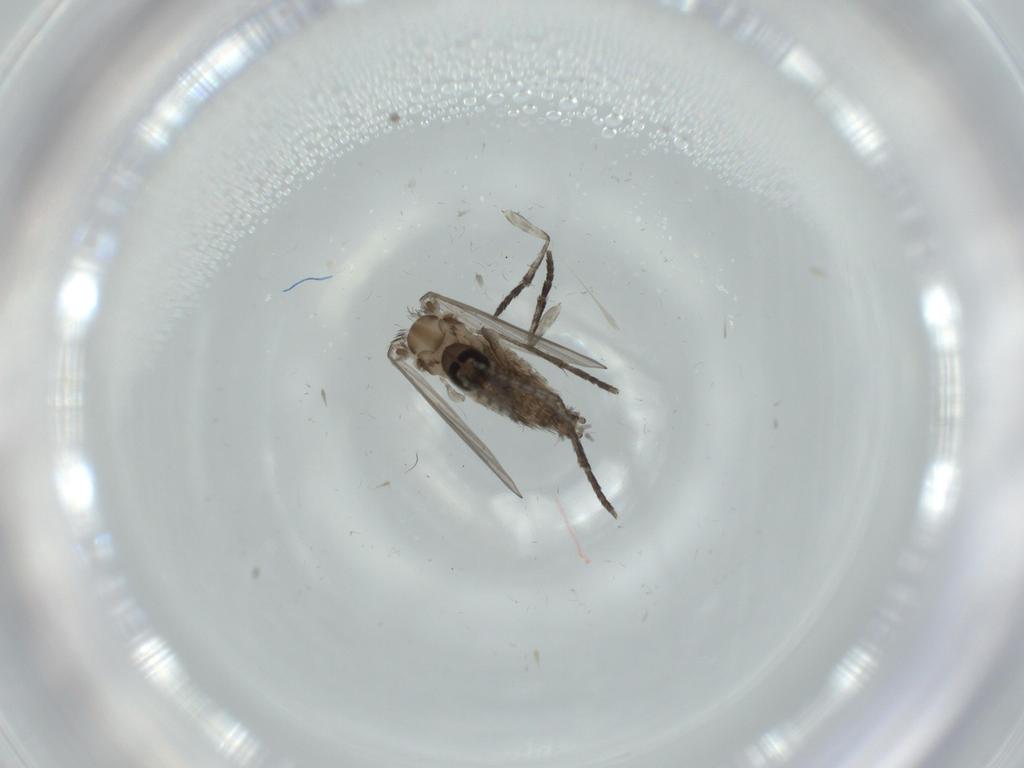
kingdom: Animalia
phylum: Arthropoda
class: Insecta
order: Diptera
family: Psychodidae
